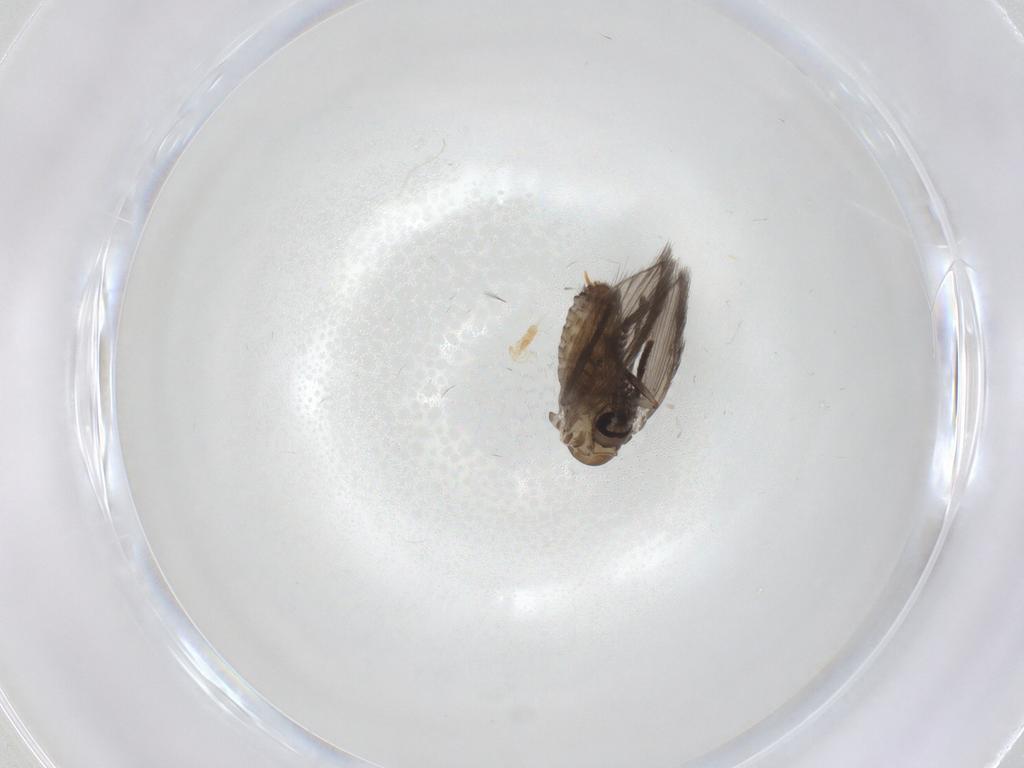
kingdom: Animalia
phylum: Arthropoda
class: Insecta
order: Diptera
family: Psychodidae
